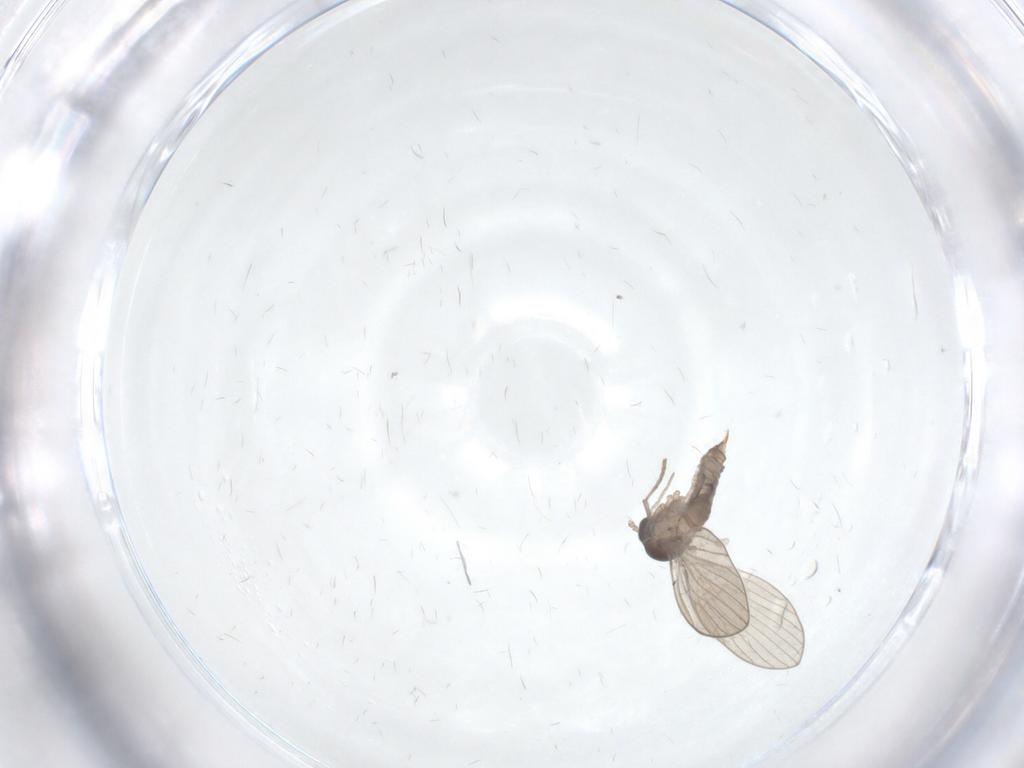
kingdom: Animalia
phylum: Arthropoda
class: Insecta
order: Diptera
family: Psychodidae
